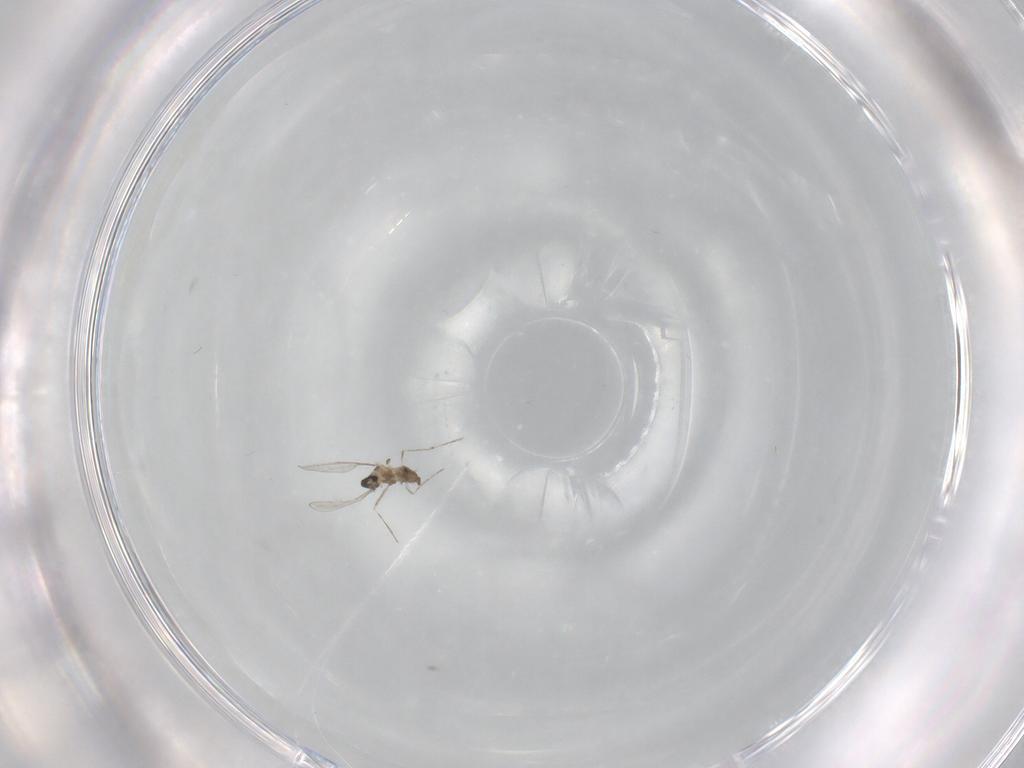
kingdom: Animalia
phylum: Arthropoda
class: Insecta
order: Diptera
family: Cecidomyiidae
